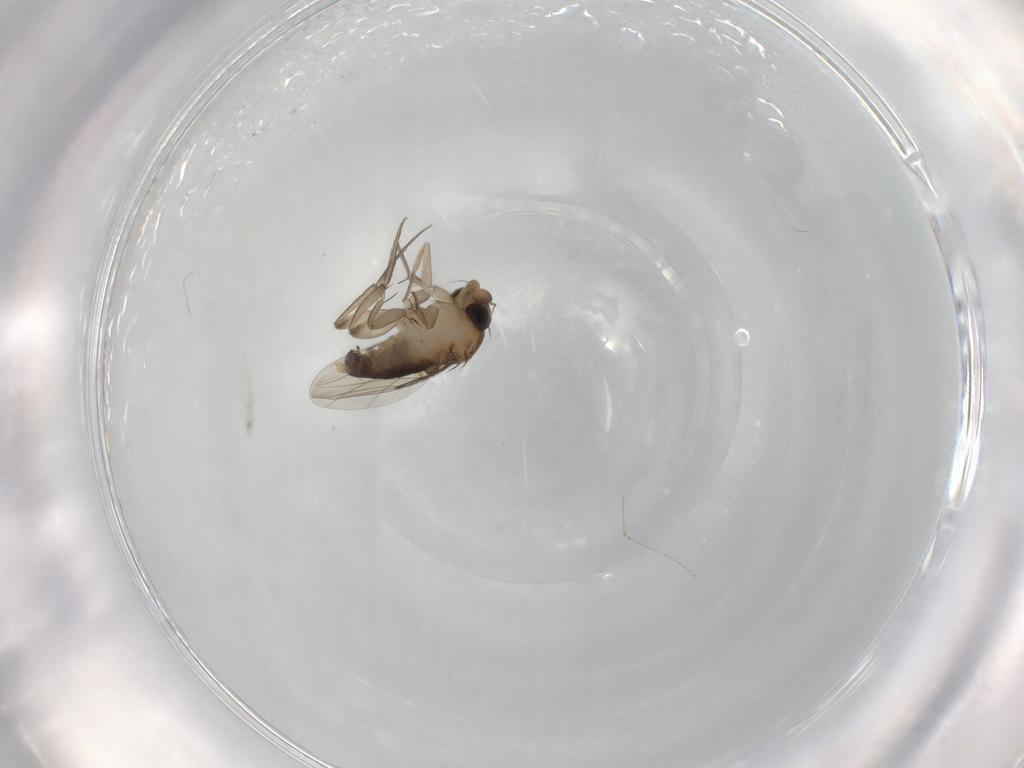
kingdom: Animalia
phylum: Arthropoda
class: Insecta
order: Diptera
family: Phoridae
